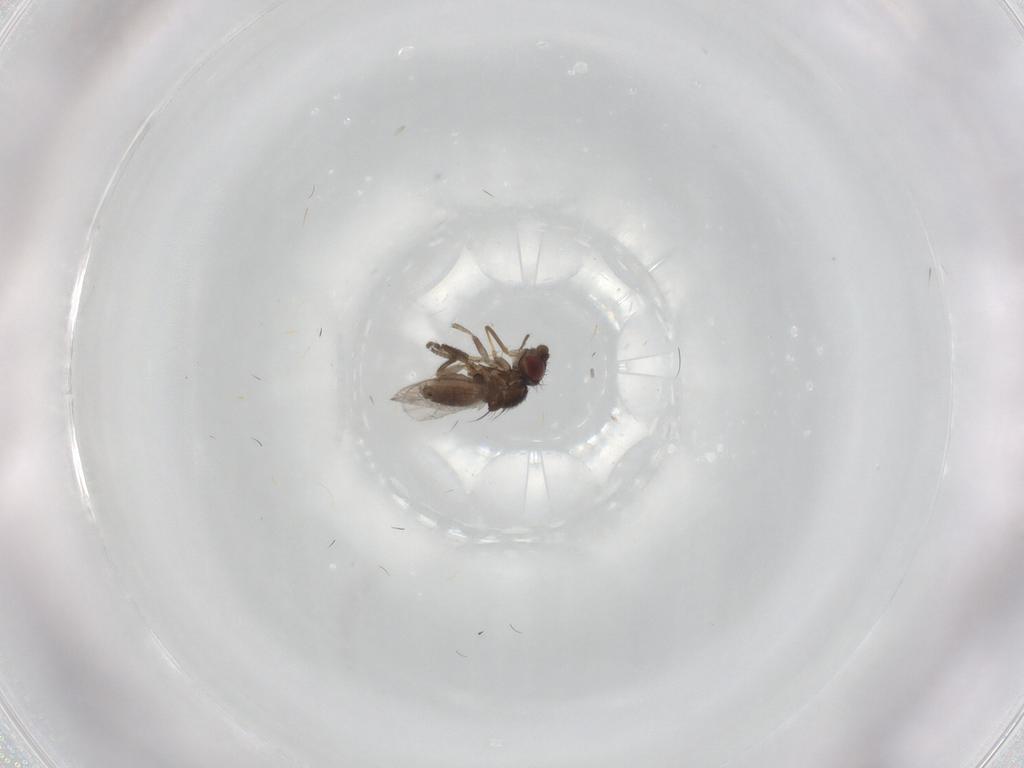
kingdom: Animalia
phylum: Arthropoda
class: Insecta
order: Diptera
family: Milichiidae
